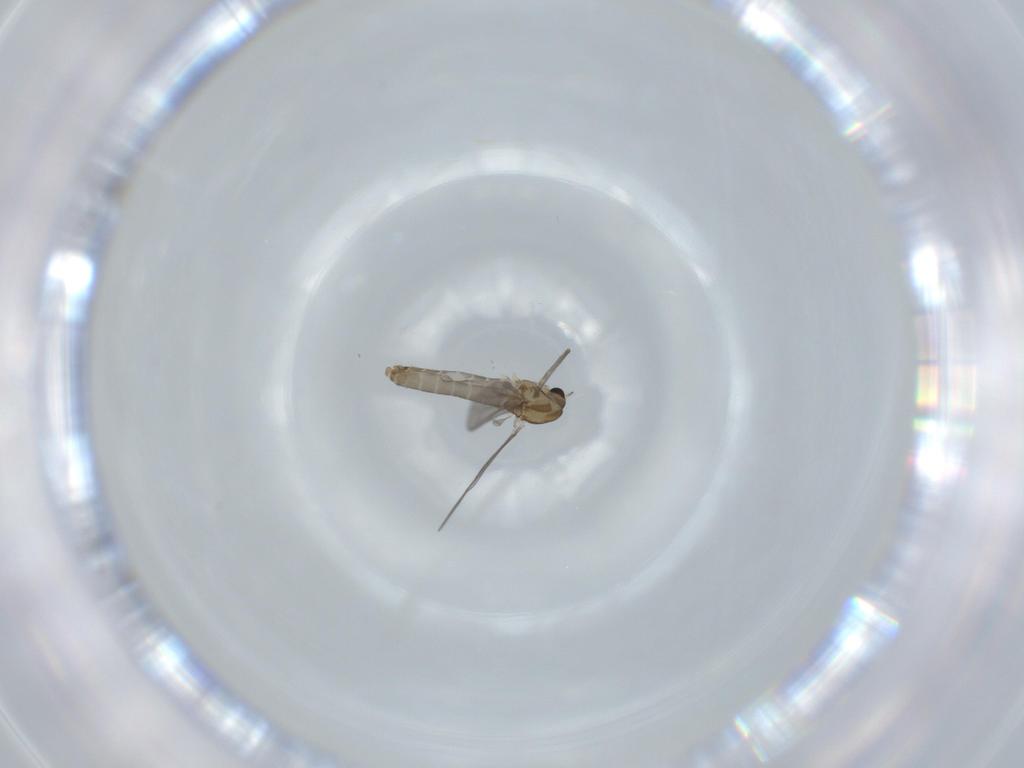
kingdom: Animalia
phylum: Arthropoda
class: Insecta
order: Diptera
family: Chironomidae
